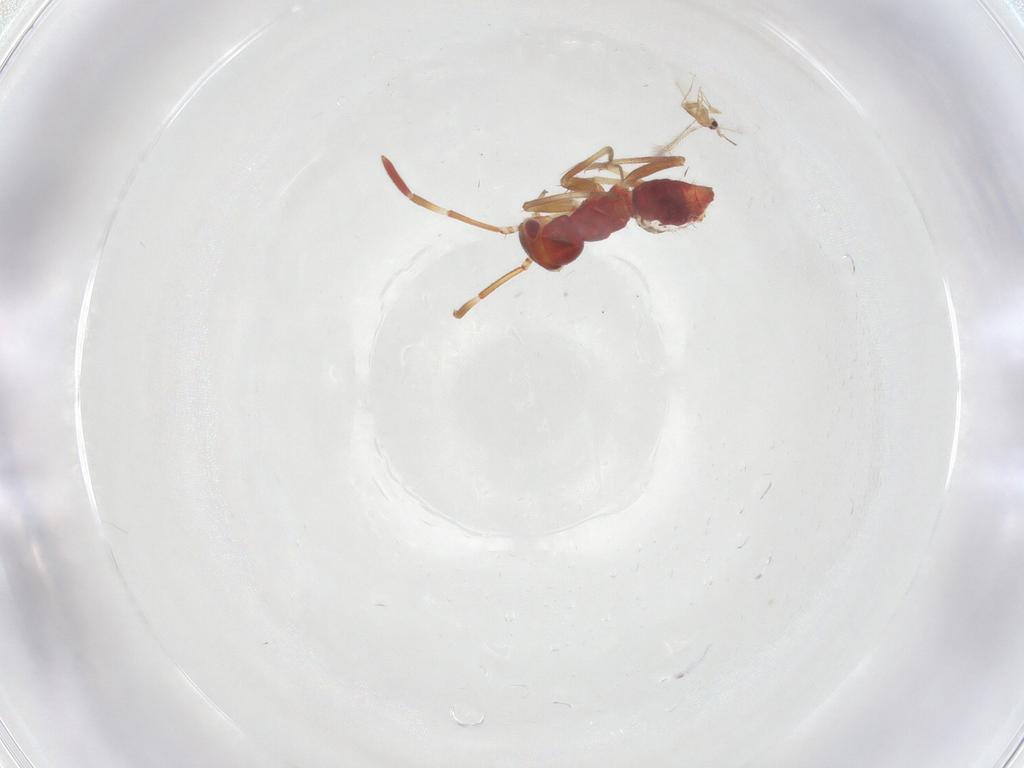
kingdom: Animalia
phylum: Arthropoda
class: Insecta
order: Hemiptera
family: Miridae
